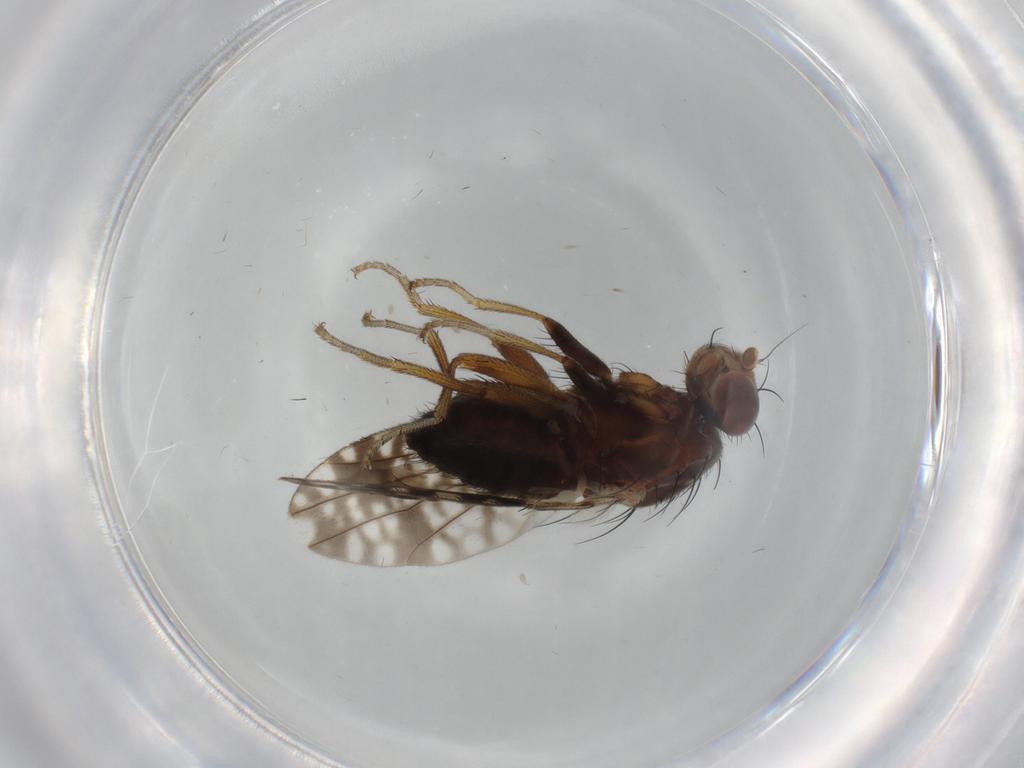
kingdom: Animalia
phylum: Arthropoda
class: Insecta
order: Diptera
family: Tephritidae
